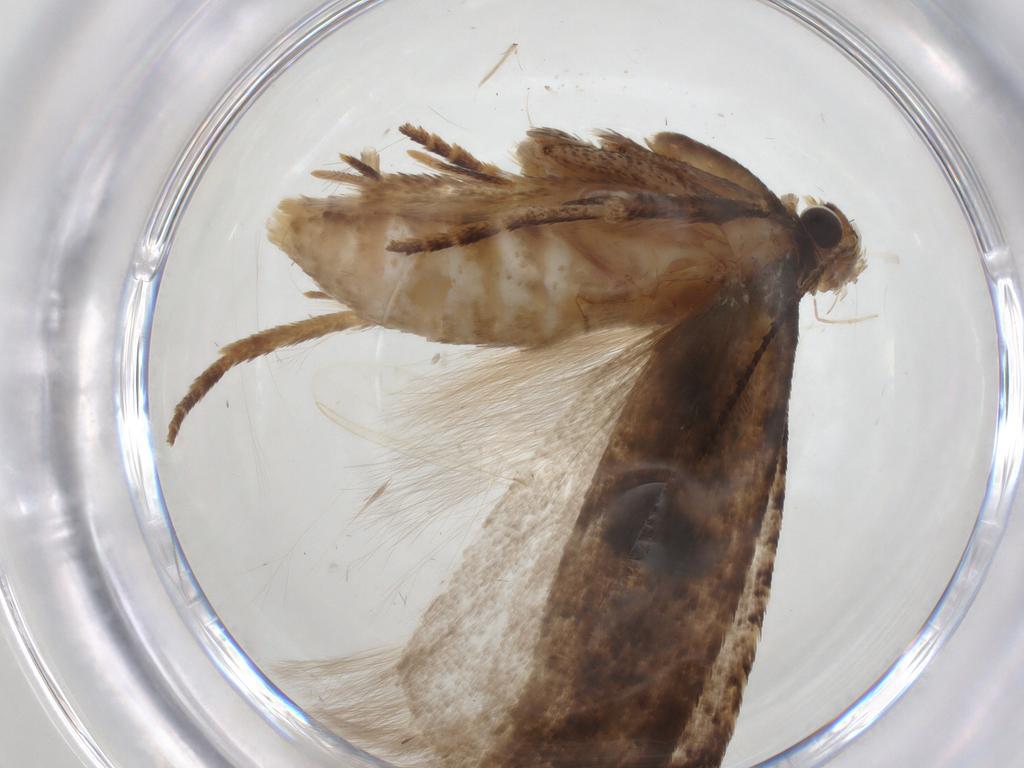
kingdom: Animalia
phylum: Arthropoda
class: Insecta
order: Lepidoptera
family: Gelechiidae
